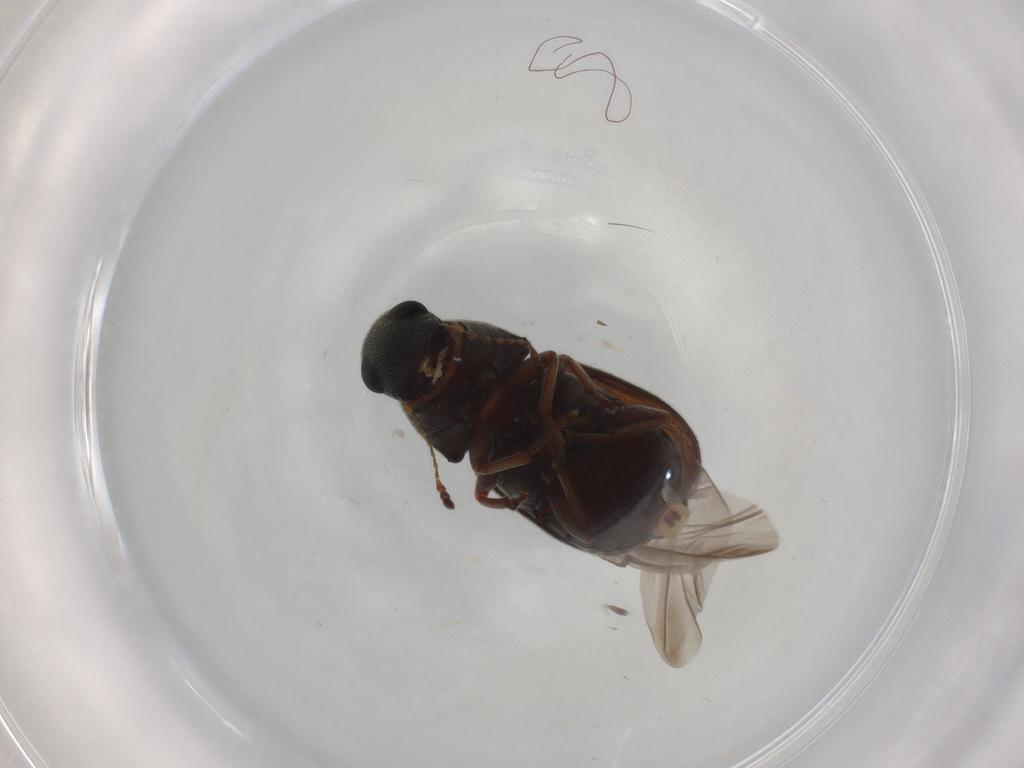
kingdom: Animalia
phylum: Arthropoda
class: Insecta
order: Coleoptera
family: Anthribidae
